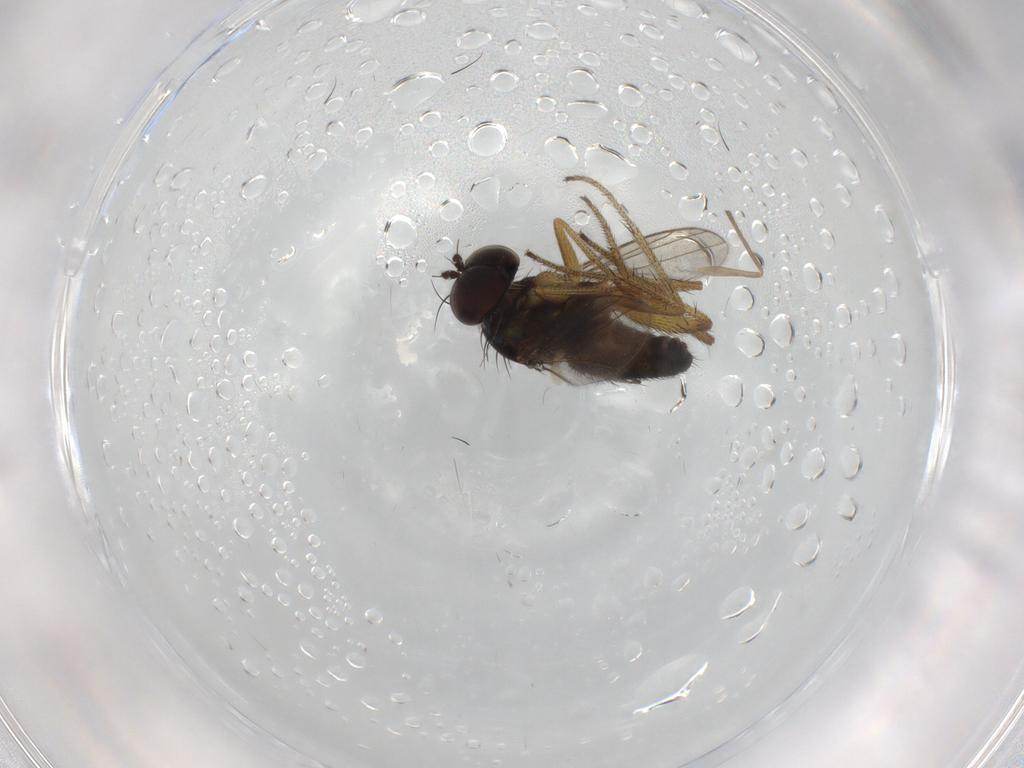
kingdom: Animalia
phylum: Arthropoda
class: Insecta
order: Diptera
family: Chironomidae
